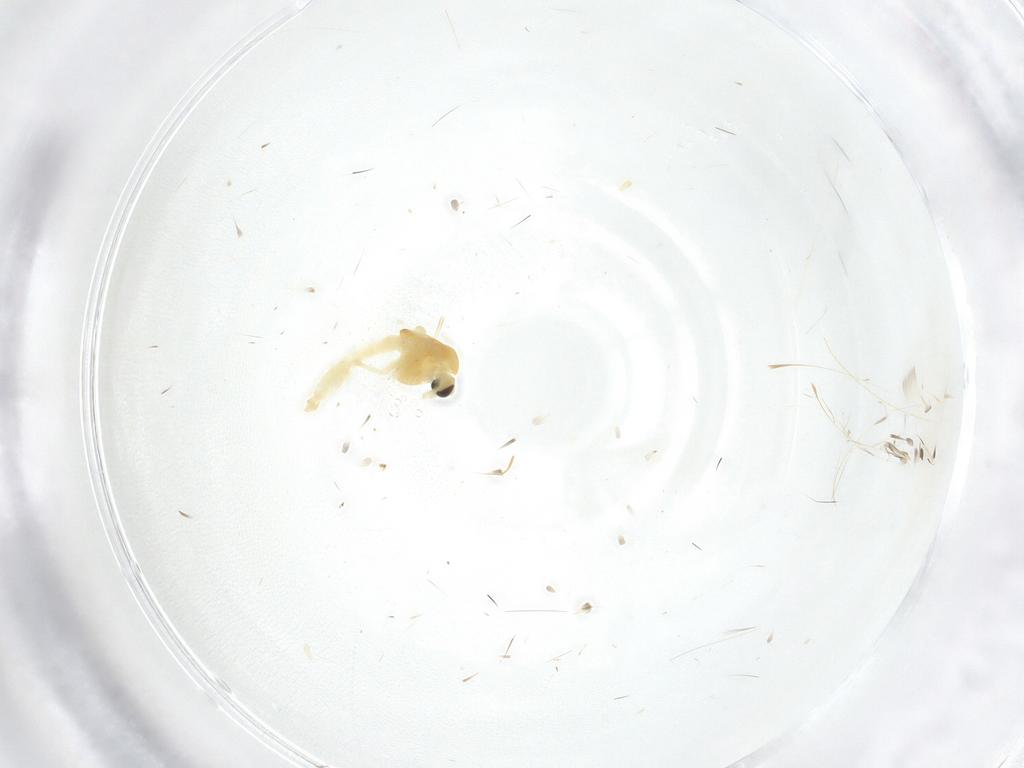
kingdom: Animalia
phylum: Arthropoda
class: Insecta
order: Diptera
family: Chironomidae
